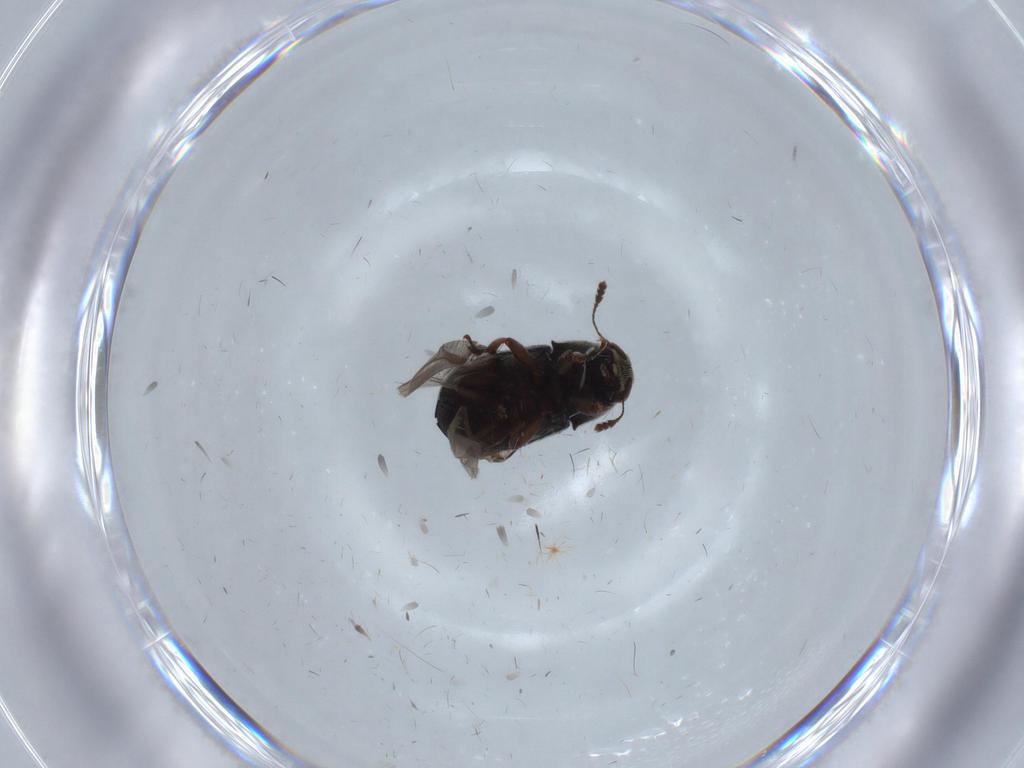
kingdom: Animalia
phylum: Arthropoda
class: Insecta
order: Coleoptera
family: Anthribidae
